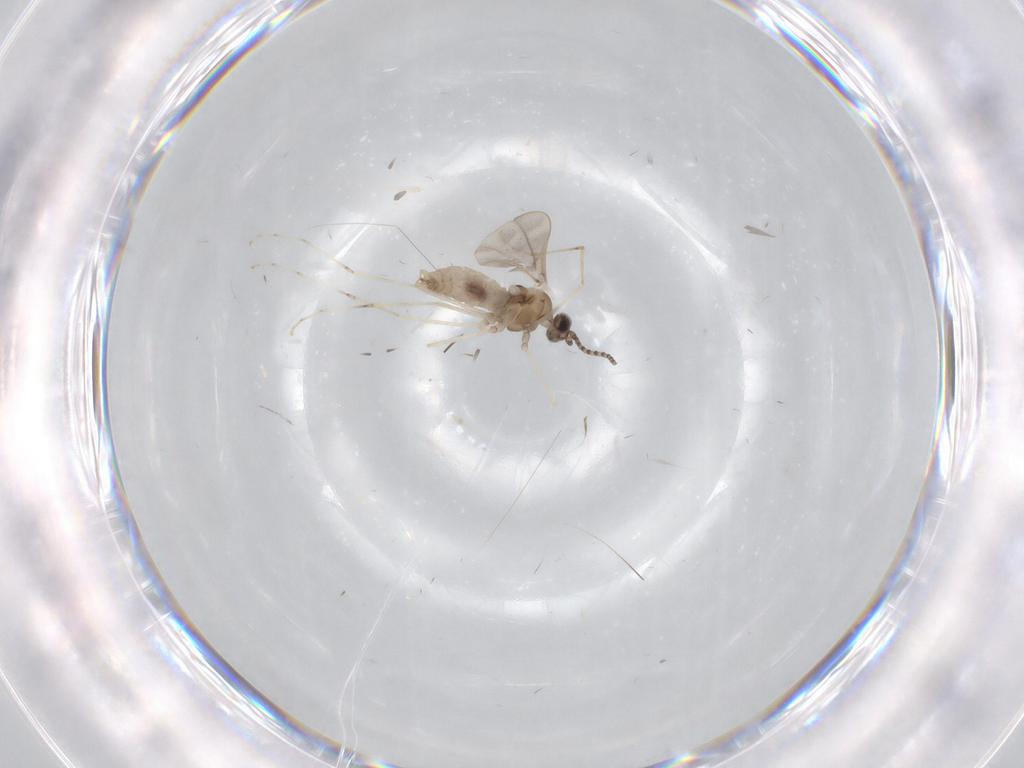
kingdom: Animalia
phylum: Arthropoda
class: Insecta
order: Diptera
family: Cecidomyiidae
